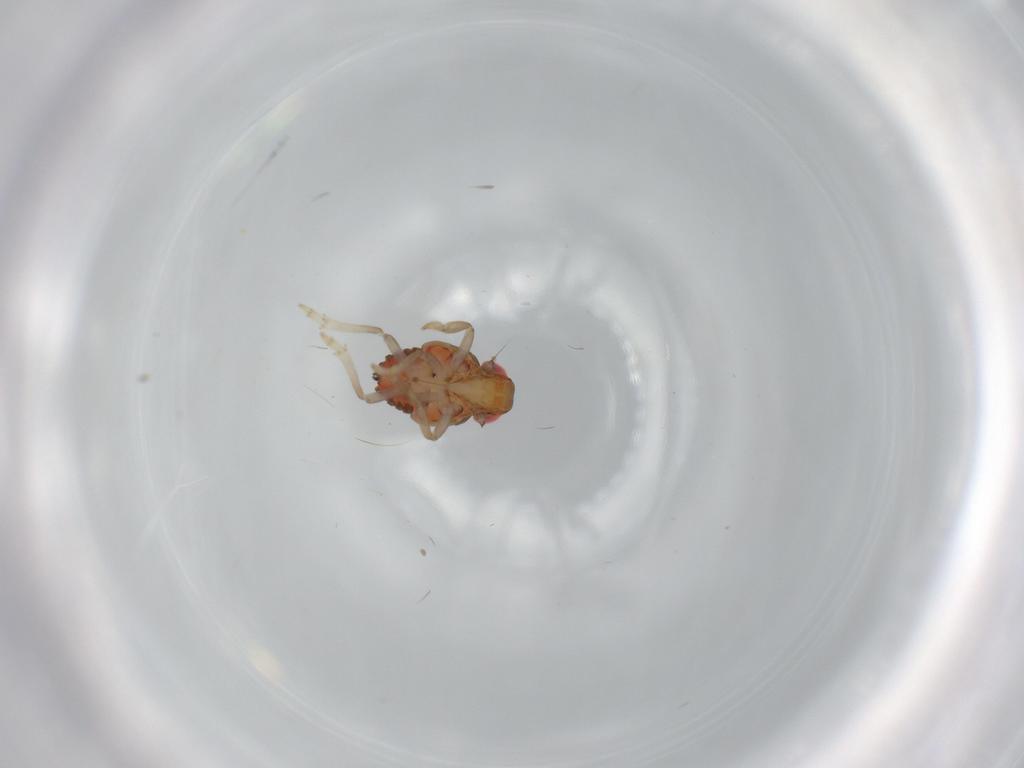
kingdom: Animalia
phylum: Arthropoda
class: Insecta
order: Hemiptera
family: Issidae
